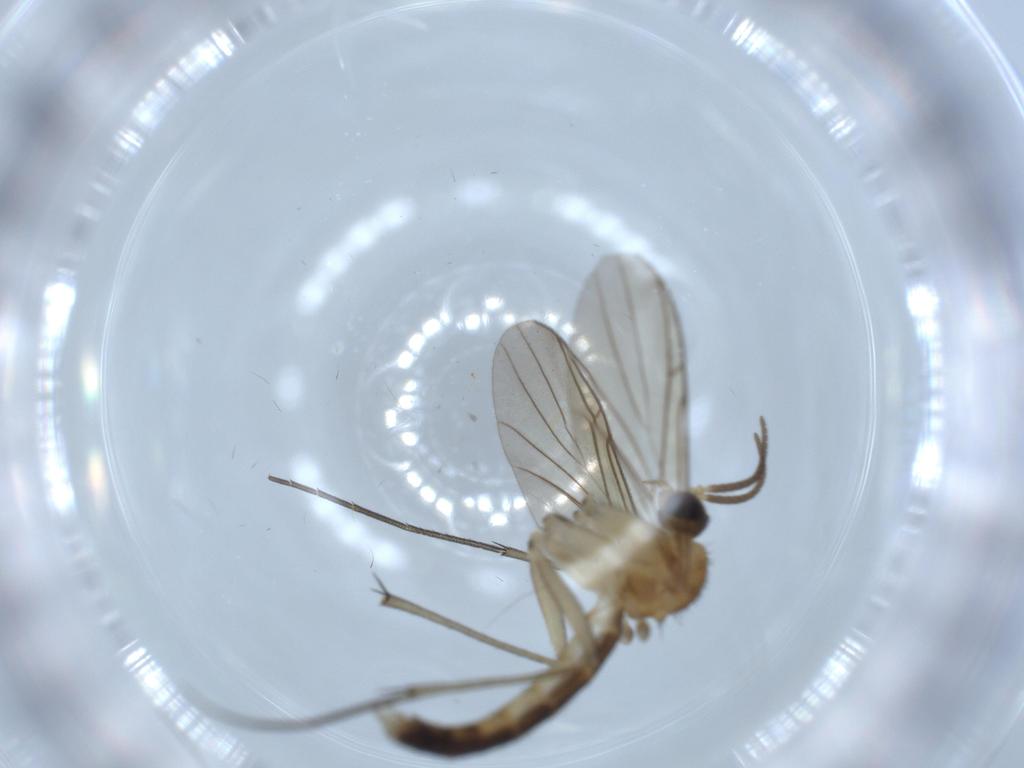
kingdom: Animalia
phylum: Arthropoda
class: Insecta
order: Diptera
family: Keroplatidae
